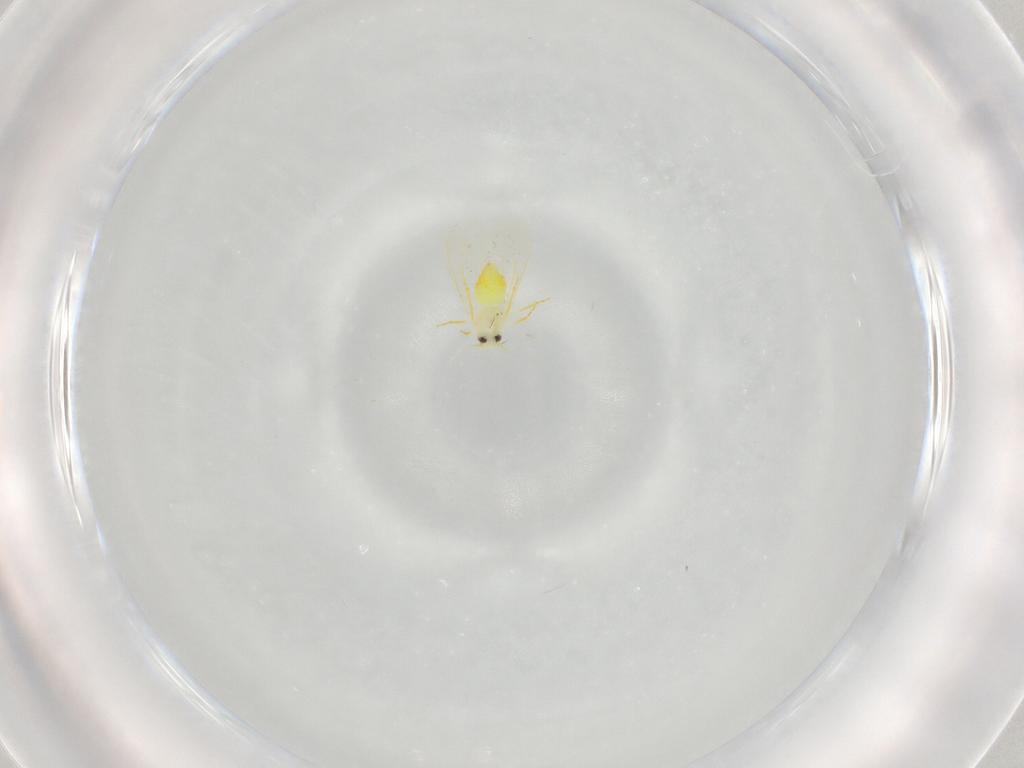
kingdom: Animalia
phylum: Arthropoda
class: Insecta
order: Hemiptera
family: Aleyrodidae
